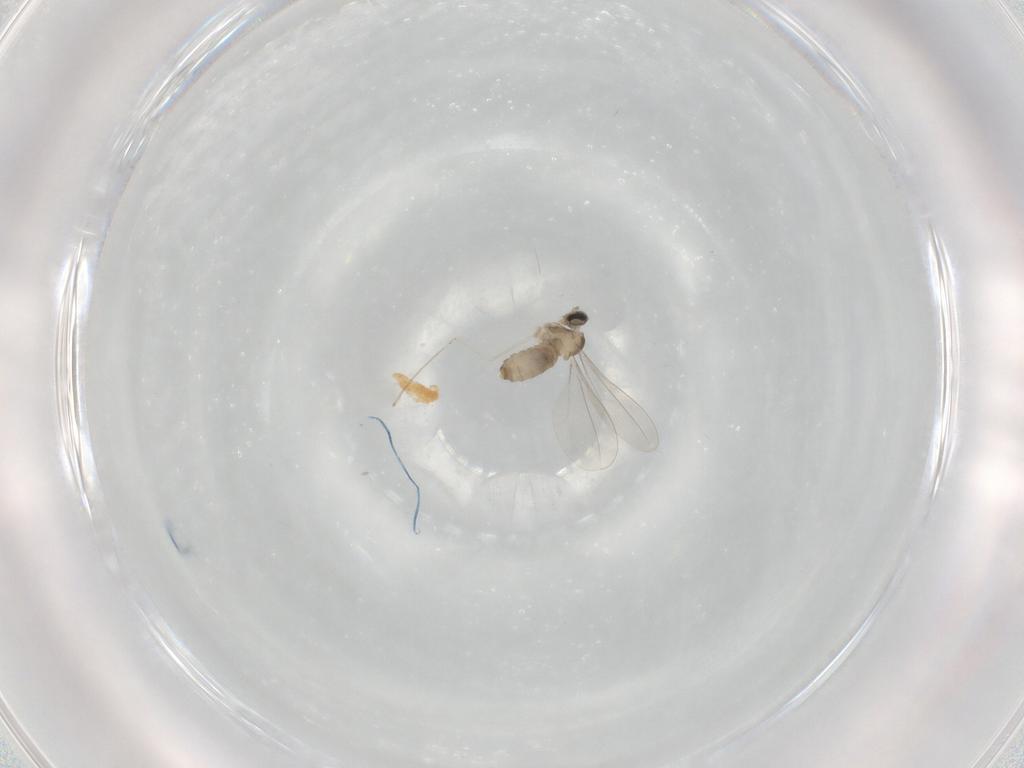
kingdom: Animalia
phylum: Arthropoda
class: Insecta
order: Diptera
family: Cecidomyiidae
